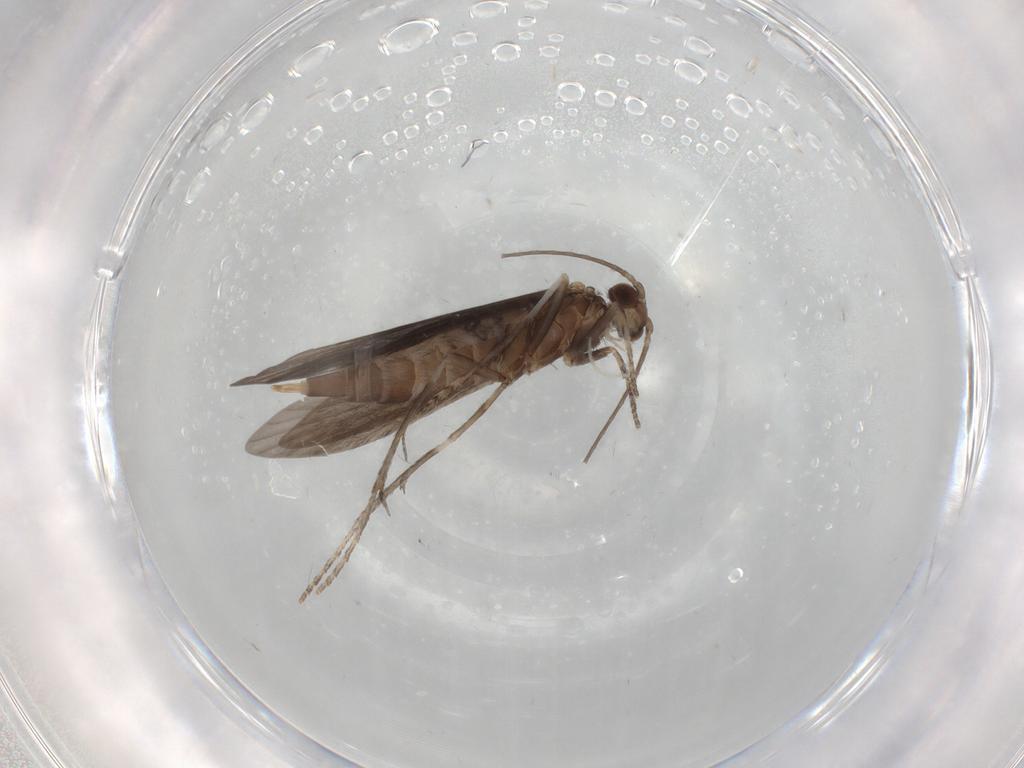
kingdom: Animalia
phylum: Arthropoda
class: Insecta
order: Trichoptera
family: Xiphocentronidae
